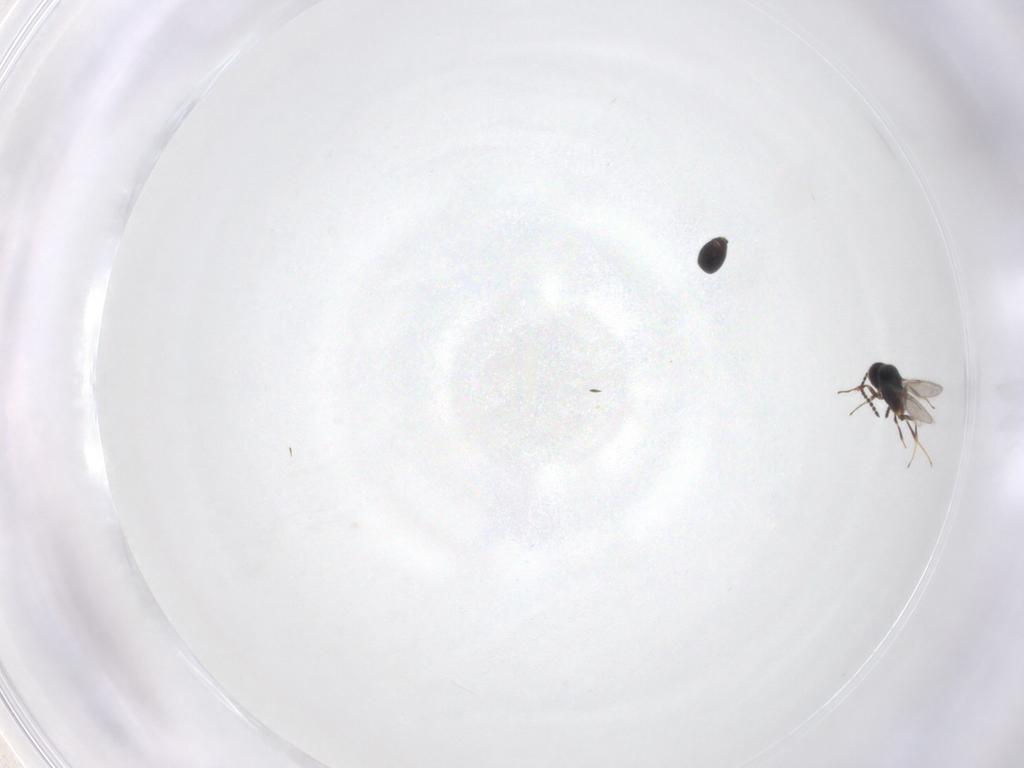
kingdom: Animalia
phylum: Arthropoda
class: Insecta
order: Hymenoptera
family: Scelionidae
